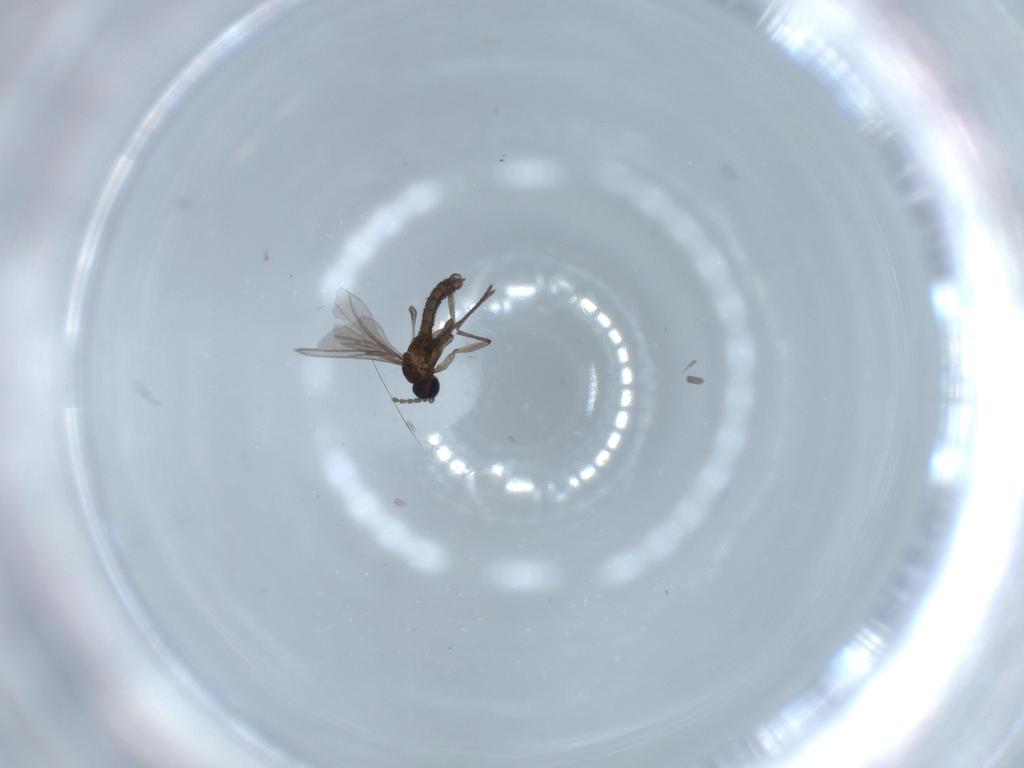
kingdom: Animalia
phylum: Arthropoda
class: Insecta
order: Diptera
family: Sciaridae
